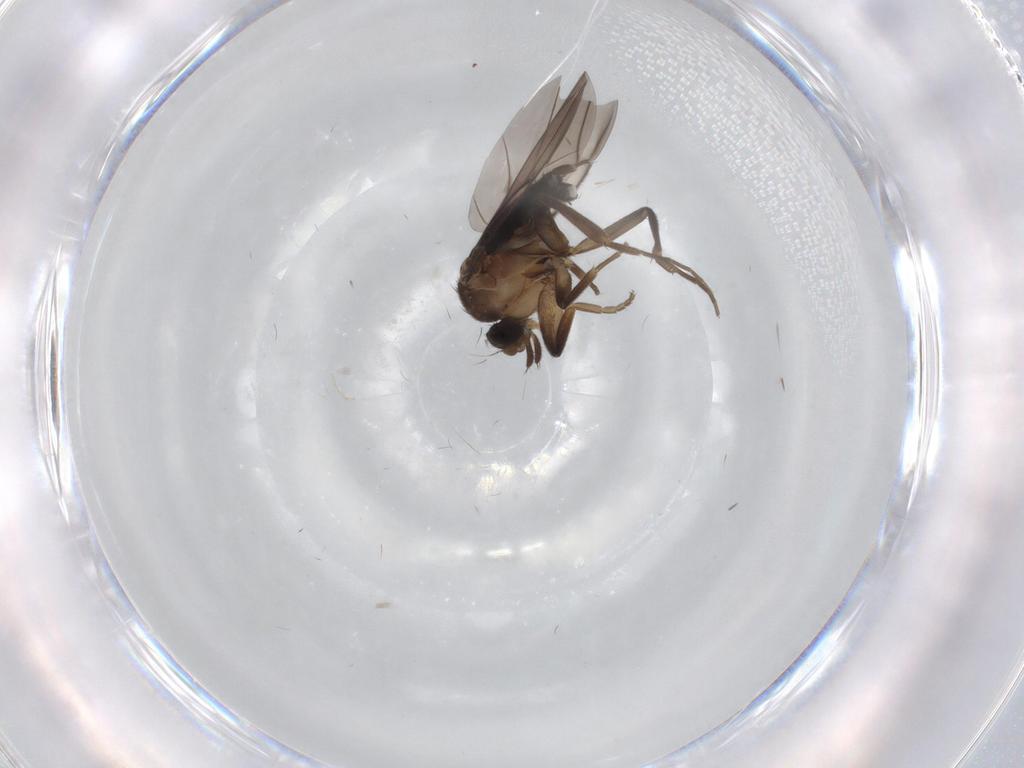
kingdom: Animalia
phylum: Arthropoda
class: Insecta
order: Diptera
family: Phoridae
